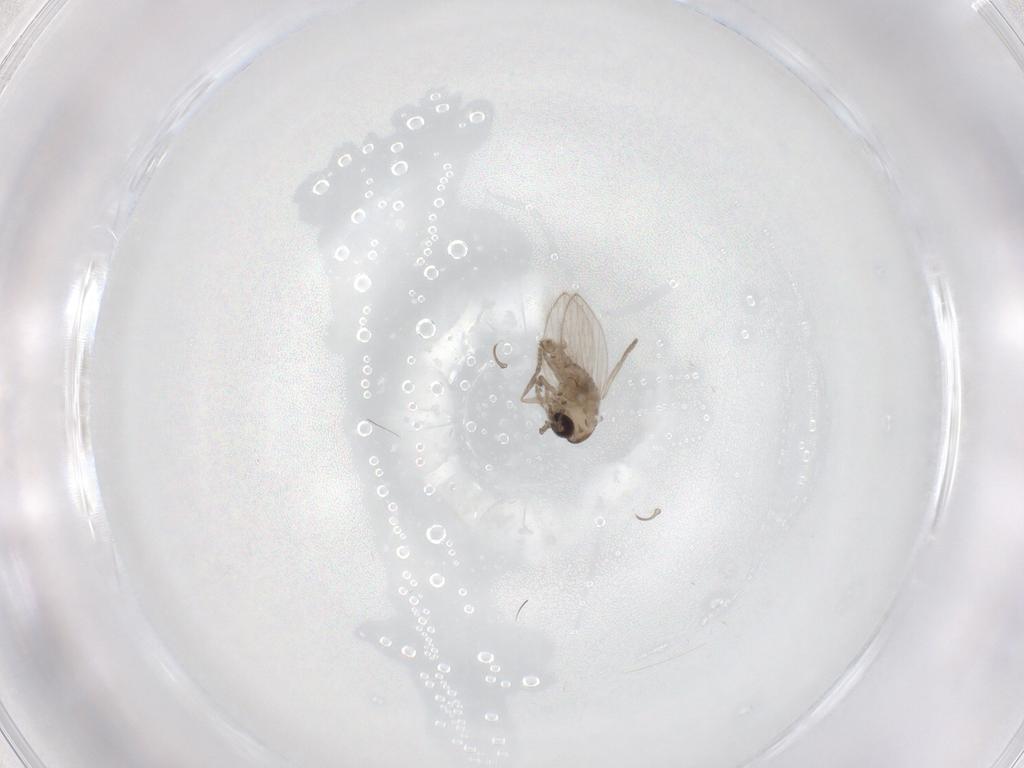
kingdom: Animalia
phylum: Arthropoda
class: Insecta
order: Diptera
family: Psychodidae
